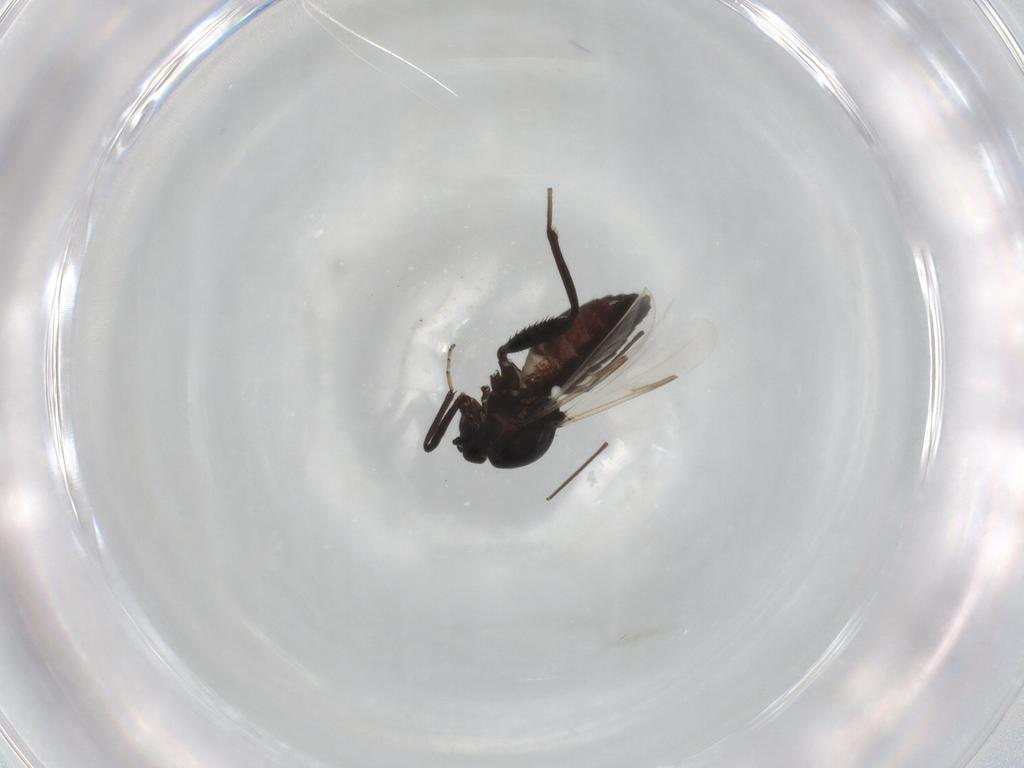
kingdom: Animalia
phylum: Arthropoda
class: Insecta
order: Diptera
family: Ceratopogonidae
